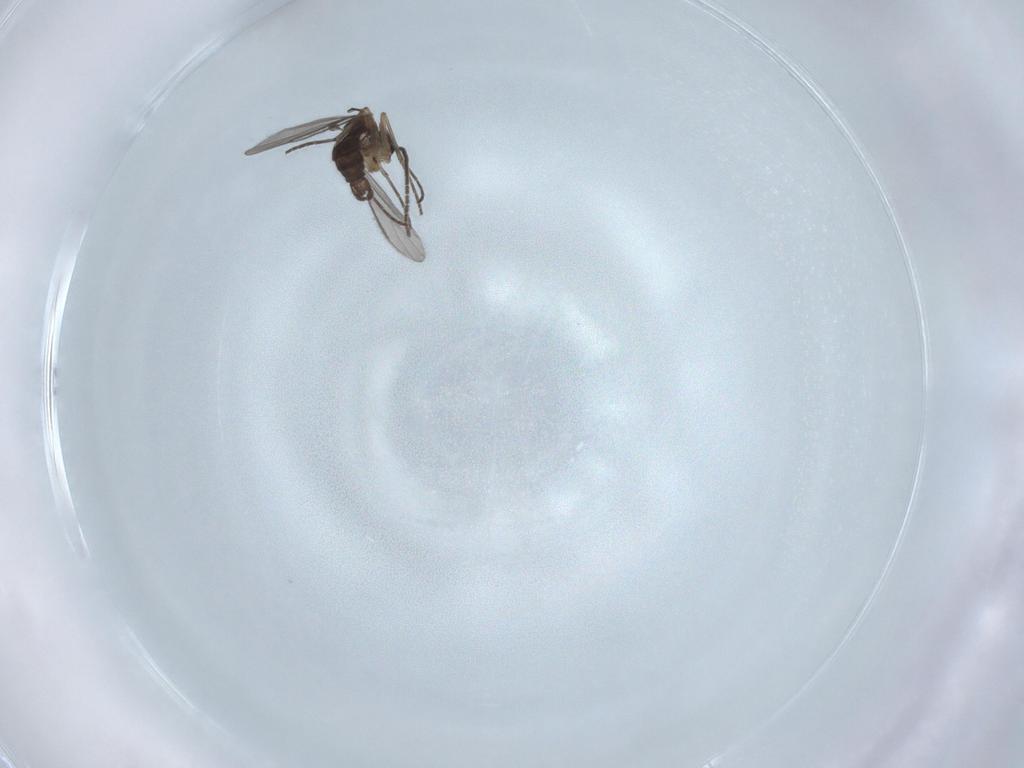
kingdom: Animalia
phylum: Arthropoda
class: Insecta
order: Diptera
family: Sciaridae
